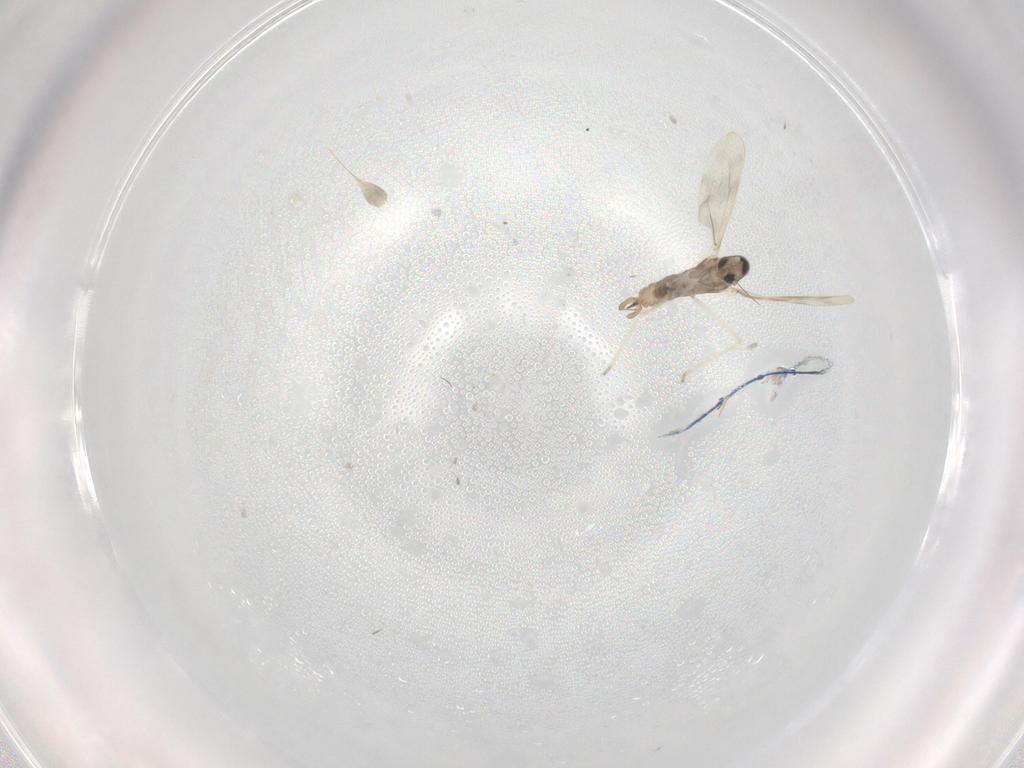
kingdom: Animalia
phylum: Arthropoda
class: Insecta
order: Diptera
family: Cecidomyiidae
